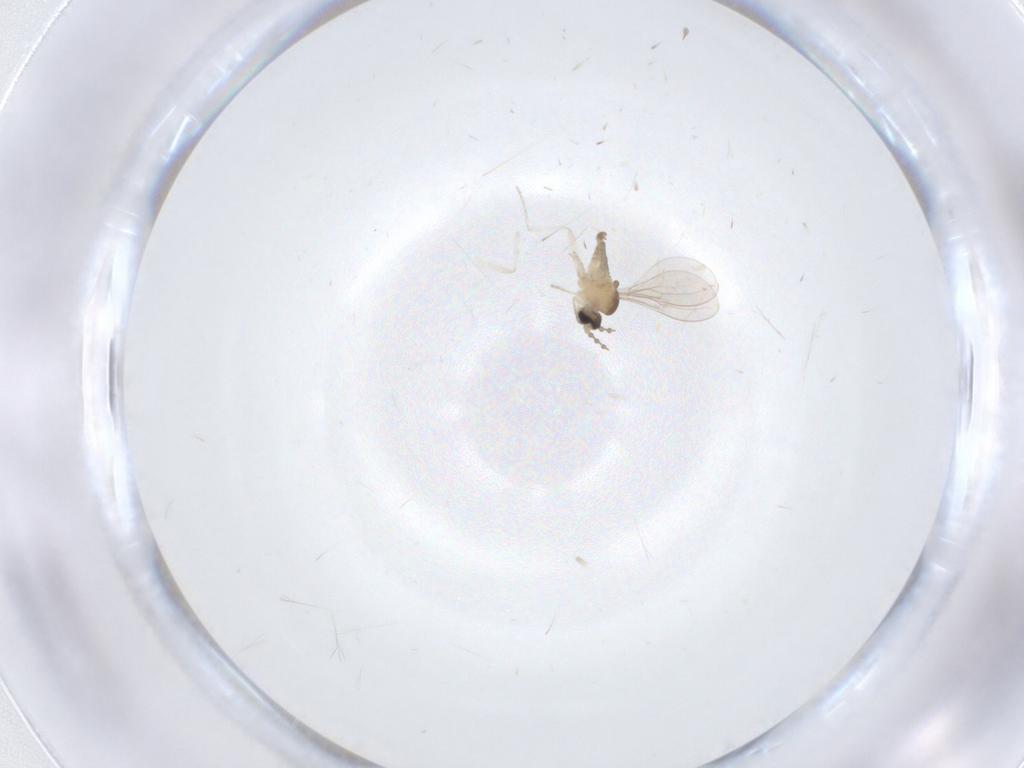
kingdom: Animalia
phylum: Arthropoda
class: Insecta
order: Diptera
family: Cecidomyiidae
